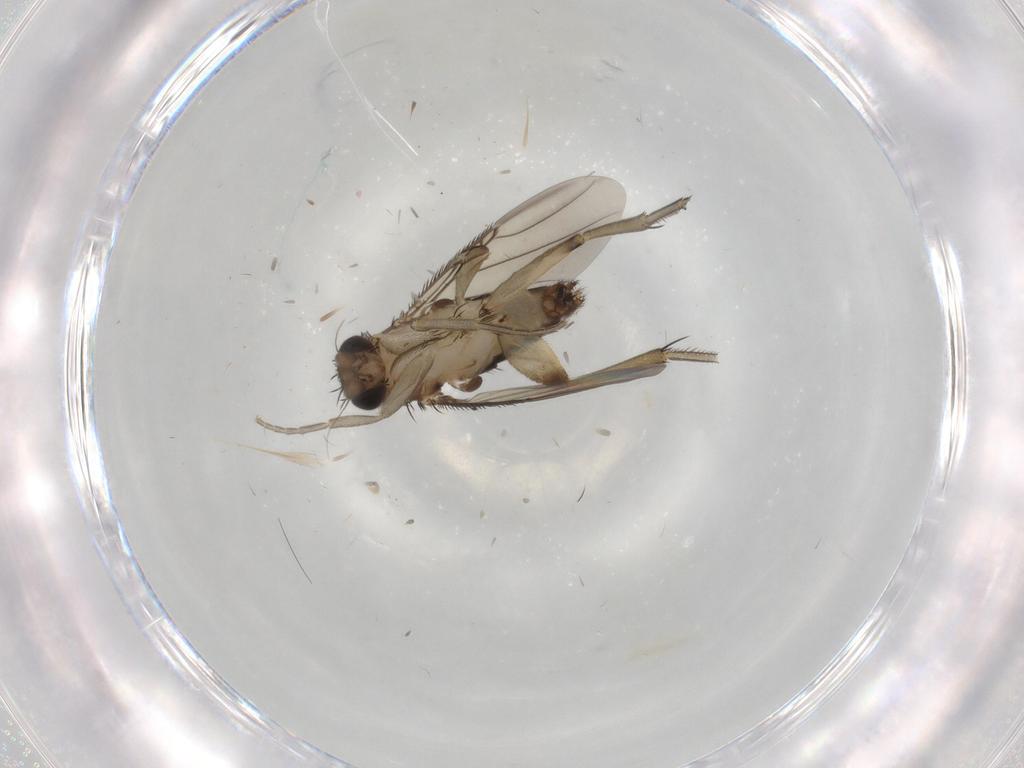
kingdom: Animalia
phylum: Arthropoda
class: Insecta
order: Diptera
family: Phoridae
